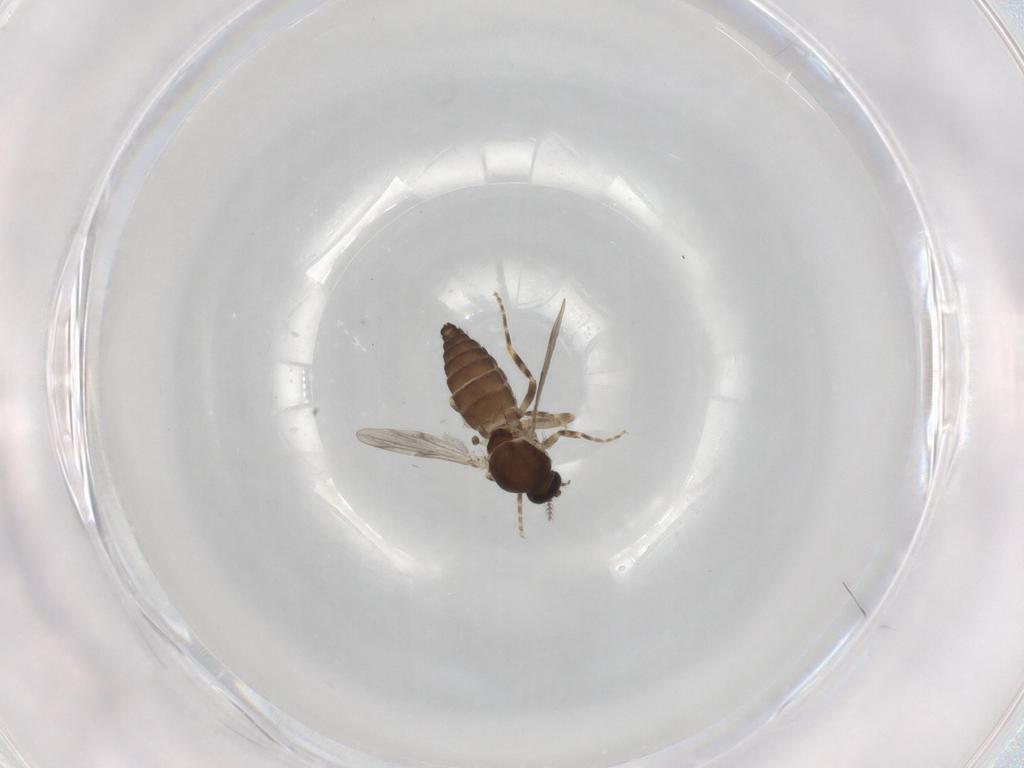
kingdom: Animalia
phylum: Arthropoda
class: Insecta
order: Diptera
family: Ceratopogonidae
